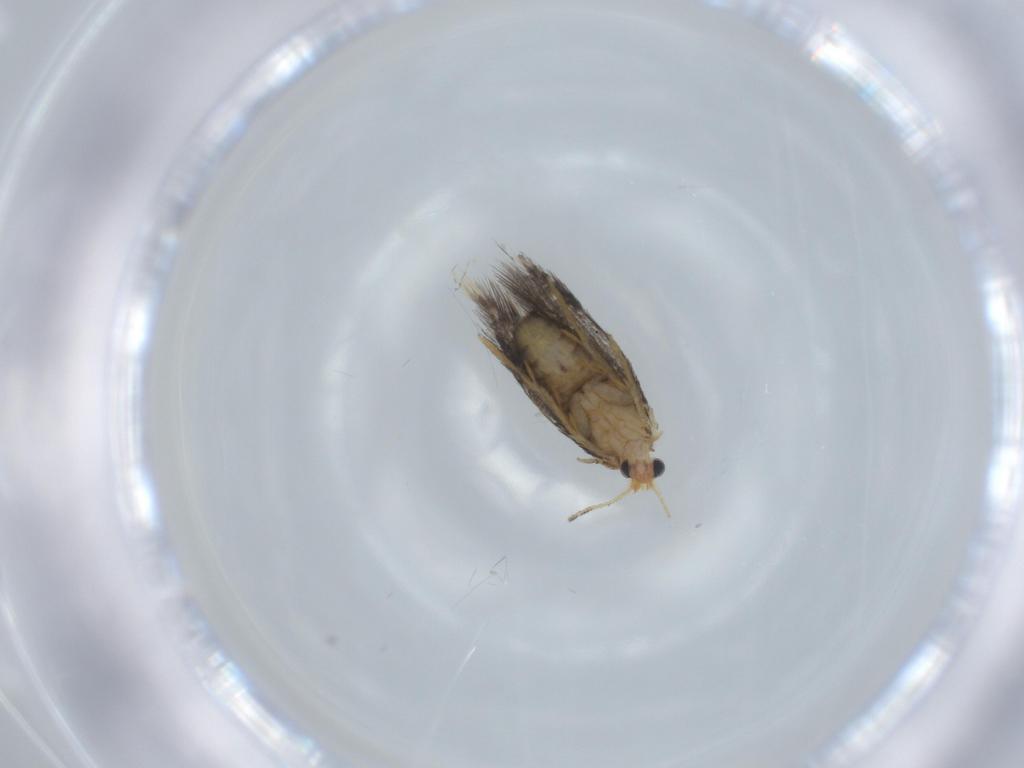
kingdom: Animalia
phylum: Arthropoda
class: Insecta
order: Lepidoptera
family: Nepticulidae
